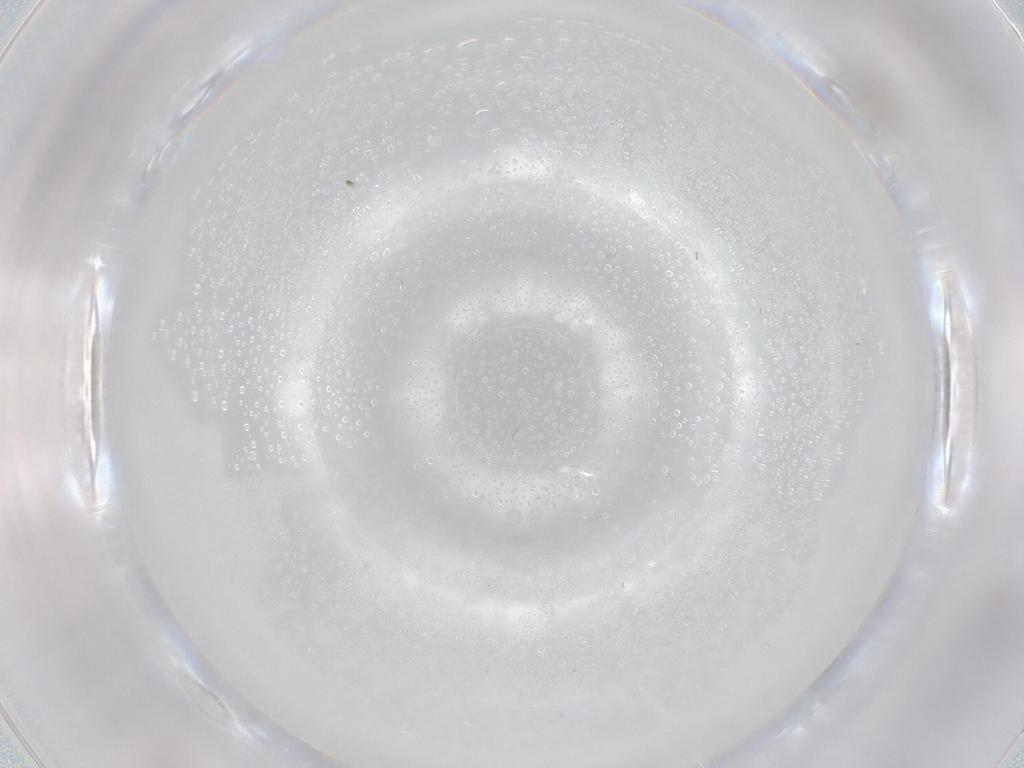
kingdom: Animalia
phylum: Arthropoda
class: Insecta
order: Diptera
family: Cecidomyiidae
